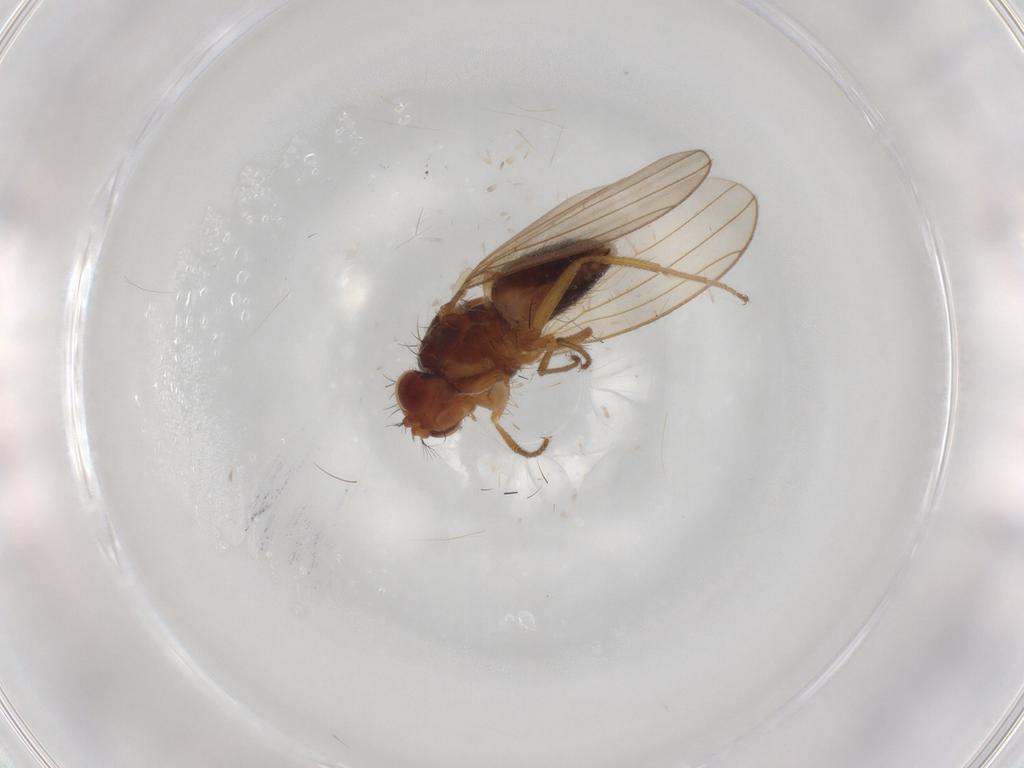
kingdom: Animalia
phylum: Arthropoda
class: Insecta
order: Diptera
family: Drosophilidae
